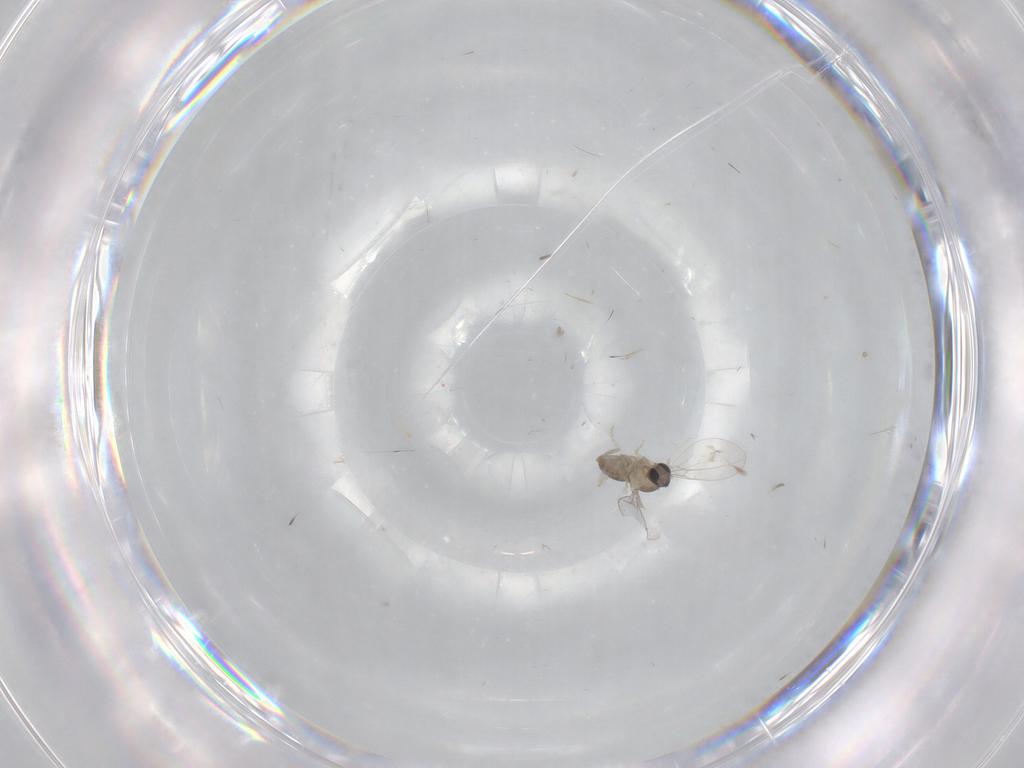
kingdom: Animalia
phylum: Arthropoda
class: Insecta
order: Diptera
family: Cecidomyiidae
